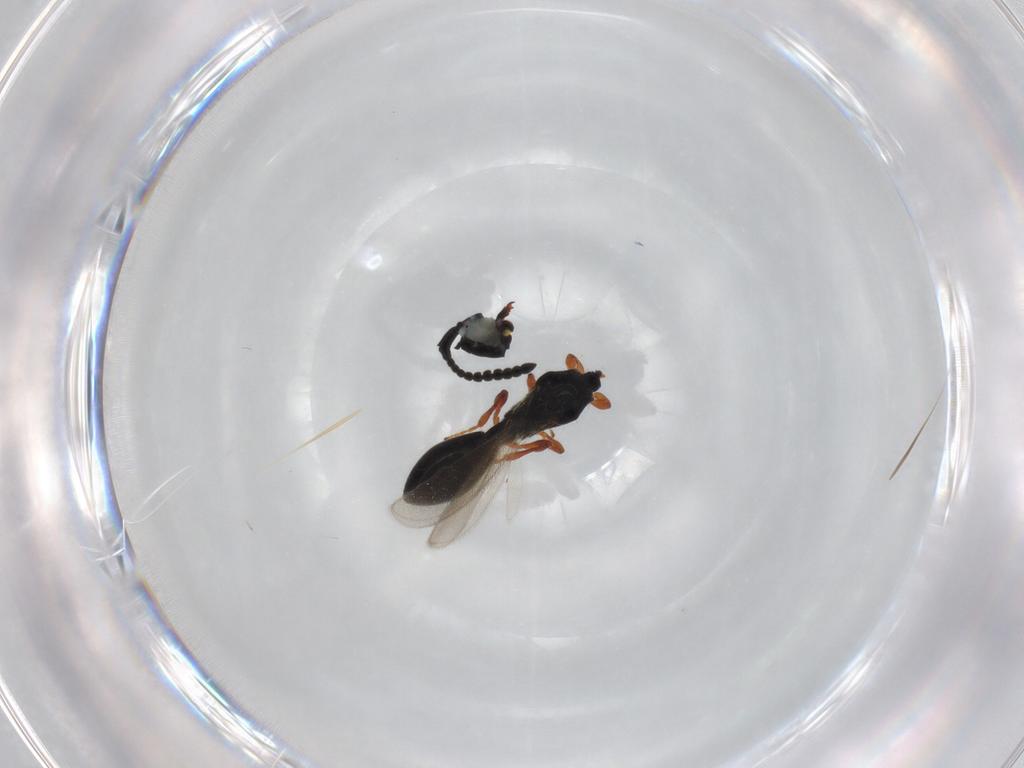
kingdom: Animalia
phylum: Arthropoda
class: Insecta
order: Hymenoptera
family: Diapriidae
